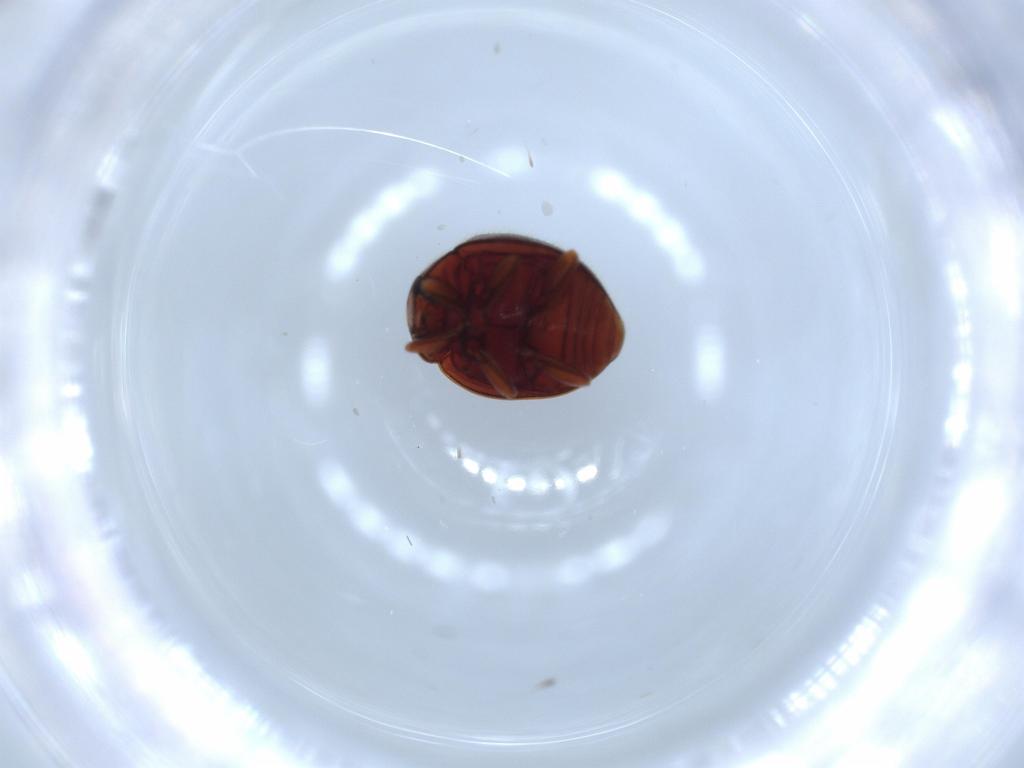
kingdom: Animalia
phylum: Arthropoda
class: Insecta
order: Coleoptera
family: Coccinellidae
